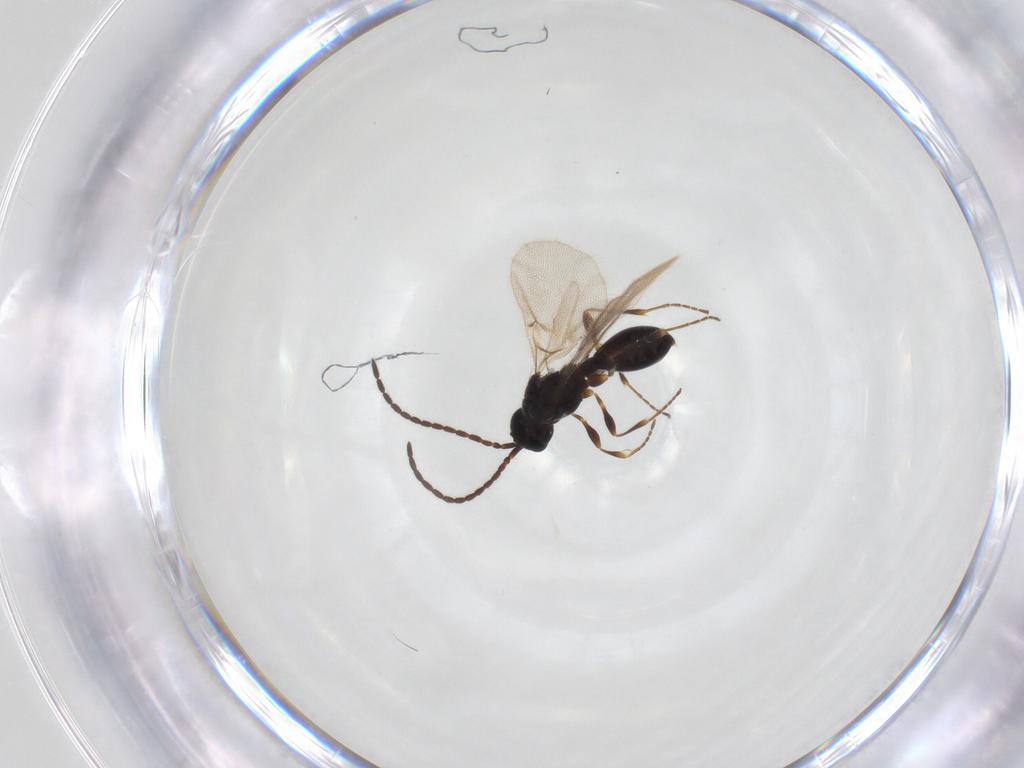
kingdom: Animalia
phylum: Arthropoda
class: Insecta
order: Hymenoptera
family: Diapriidae
